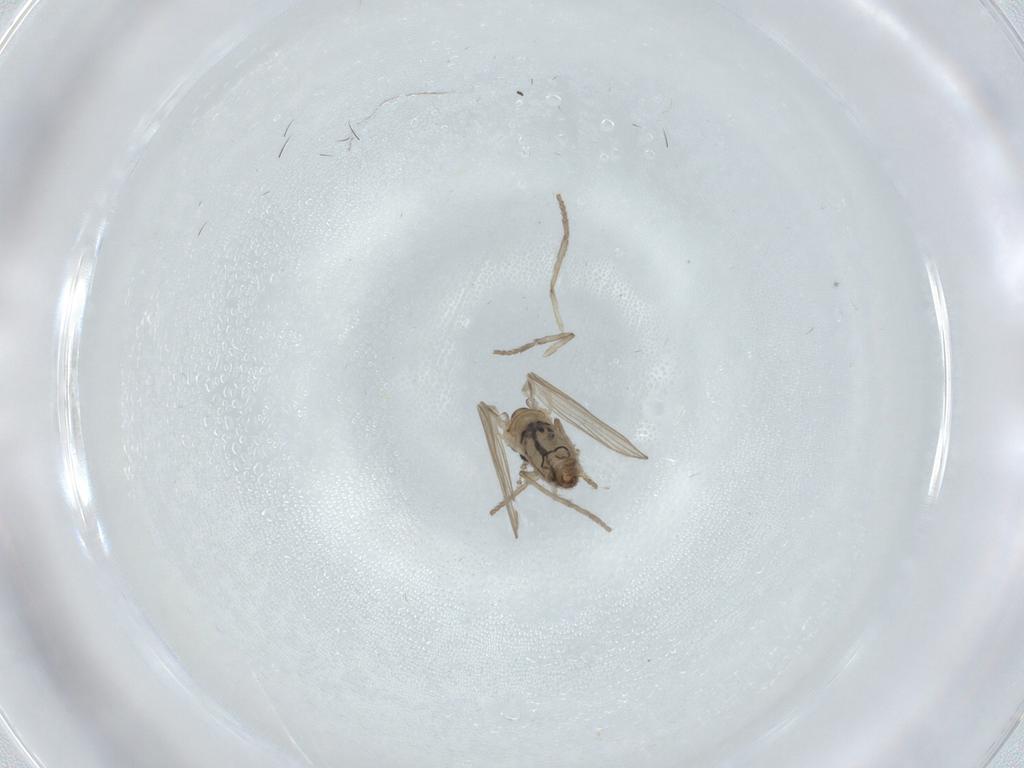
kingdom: Animalia
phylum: Arthropoda
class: Insecta
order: Diptera
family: Psychodidae
